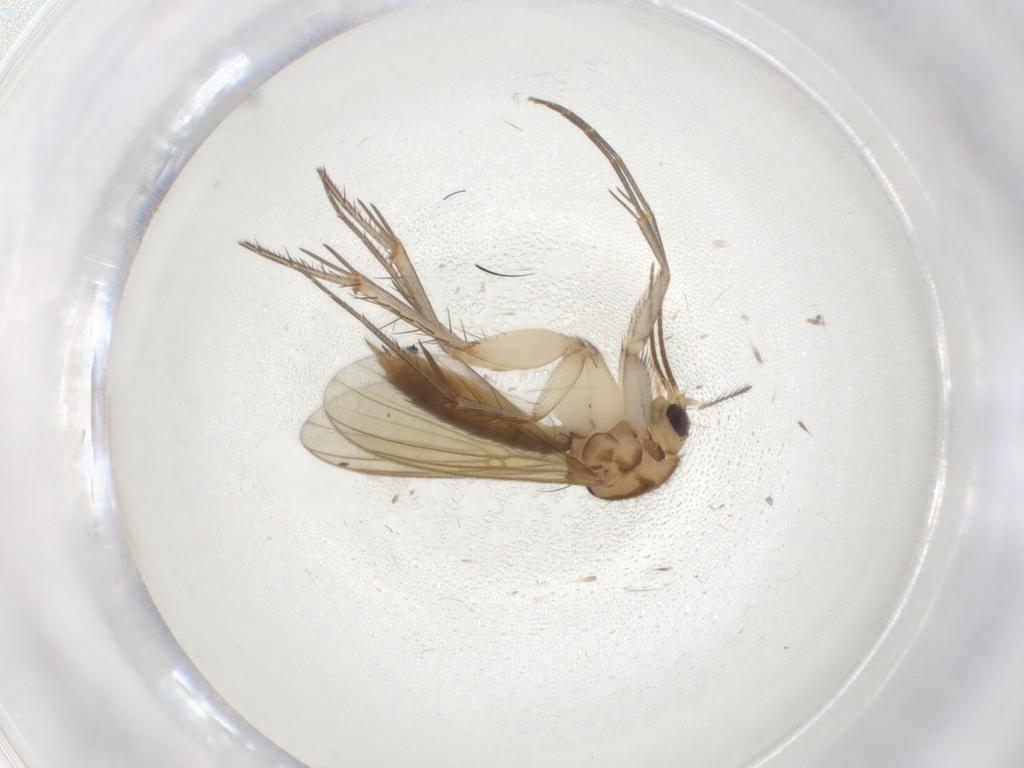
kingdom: Animalia
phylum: Arthropoda
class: Insecta
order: Diptera
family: Mycetophilidae
